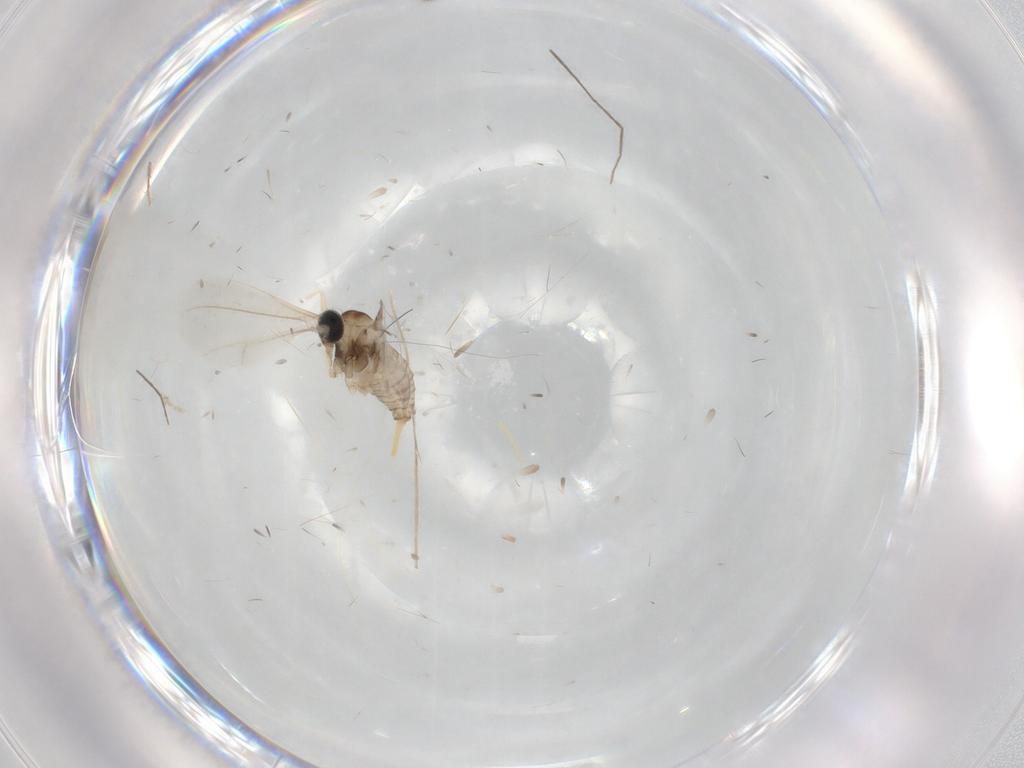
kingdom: Animalia
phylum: Arthropoda
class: Insecta
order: Diptera
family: Cecidomyiidae
